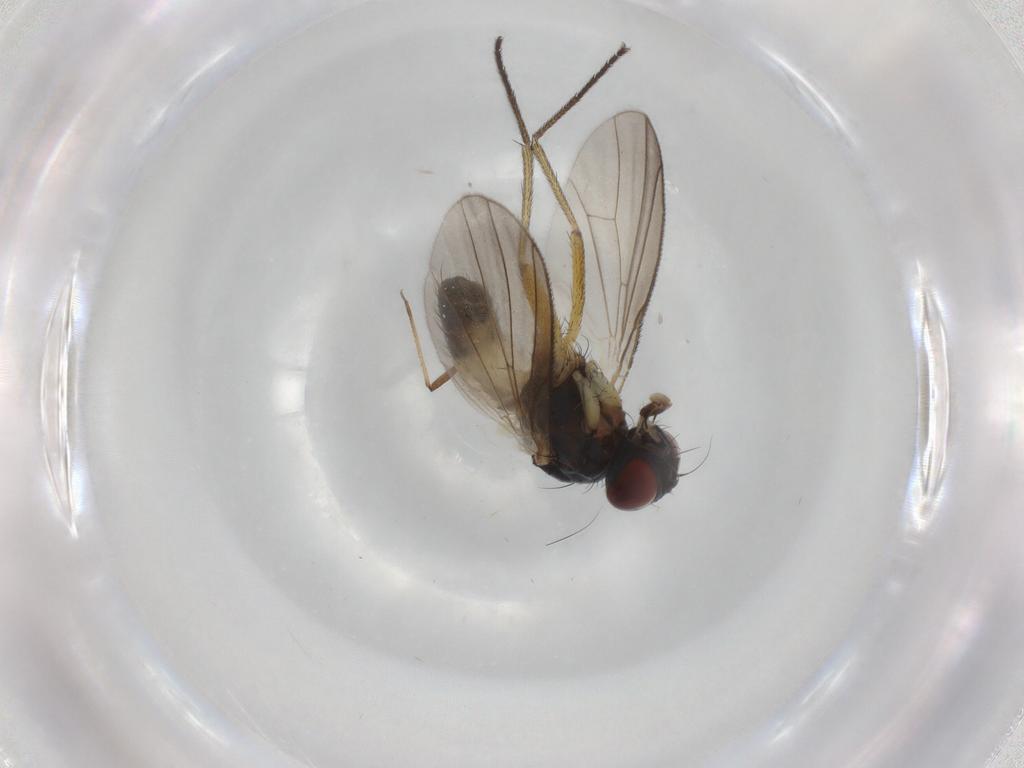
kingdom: Animalia
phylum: Arthropoda
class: Insecta
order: Diptera
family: Muscidae
